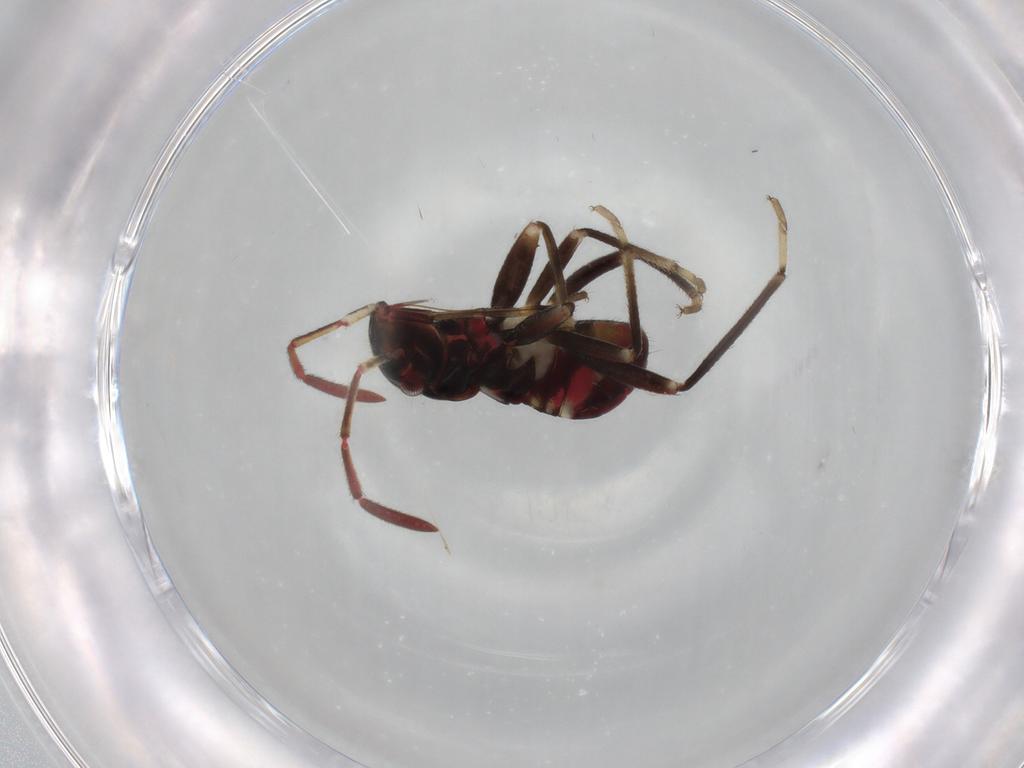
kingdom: Animalia
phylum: Arthropoda
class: Insecta
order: Hemiptera
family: Rhyparochromidae
